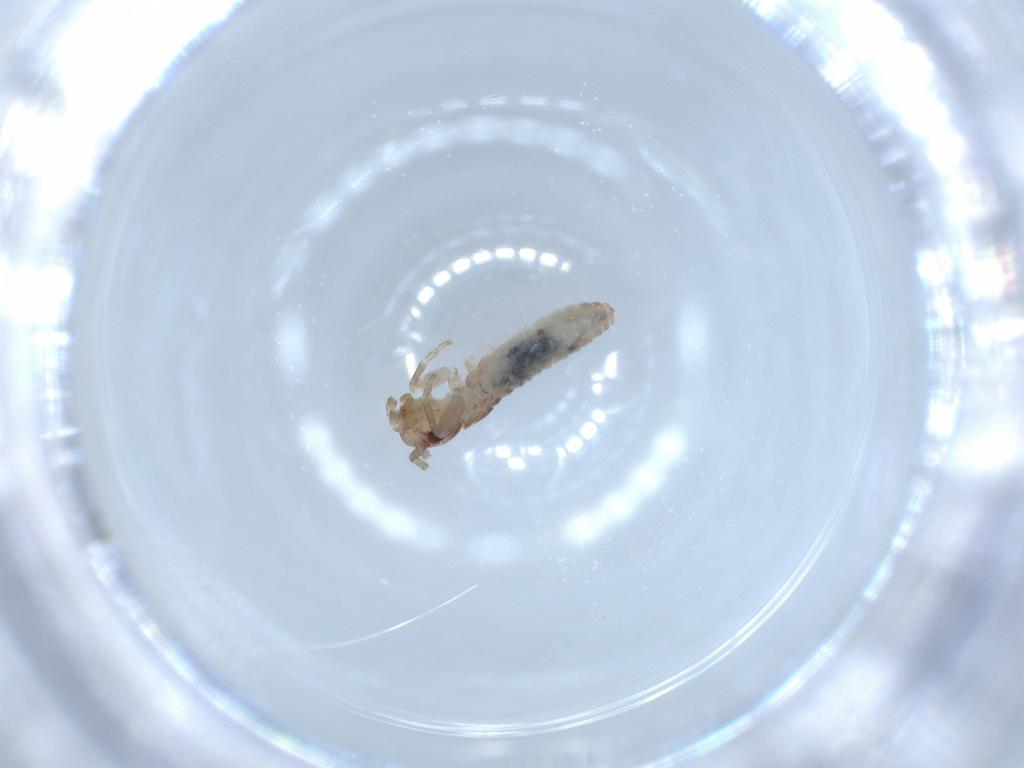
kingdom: Animalia
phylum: Arthropoda
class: Insecta
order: Orthoptera
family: Mogoplistidae
